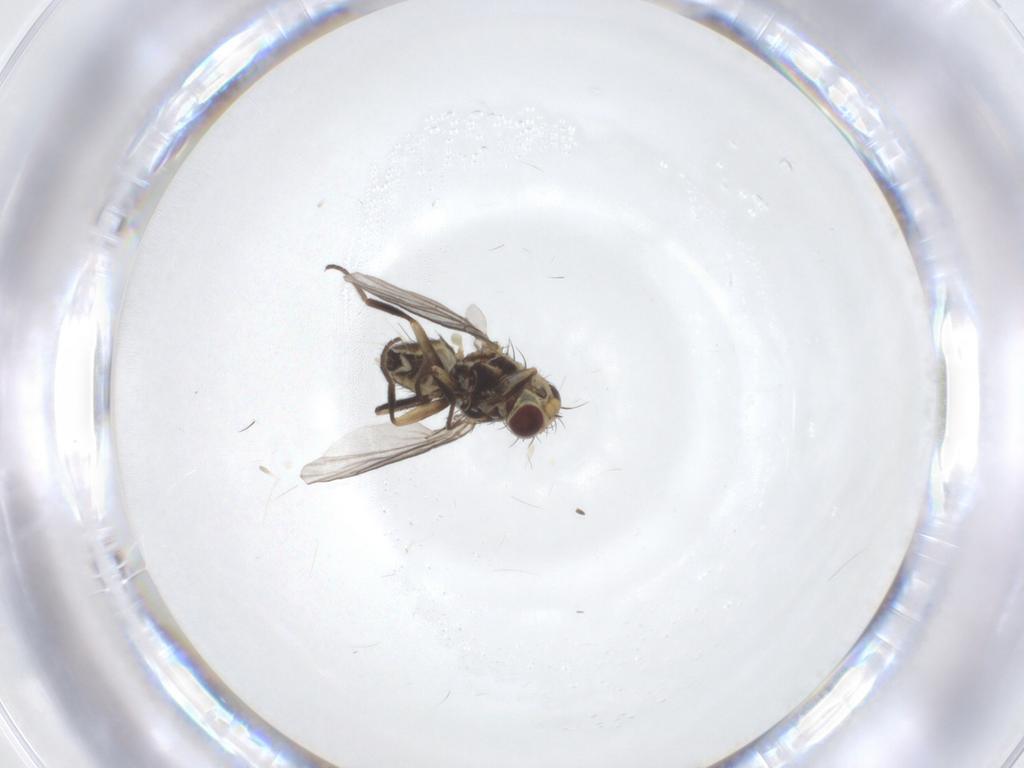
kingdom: Animalia
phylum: Arthropoda
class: Insecta
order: Diptera
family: Agromyzidae
